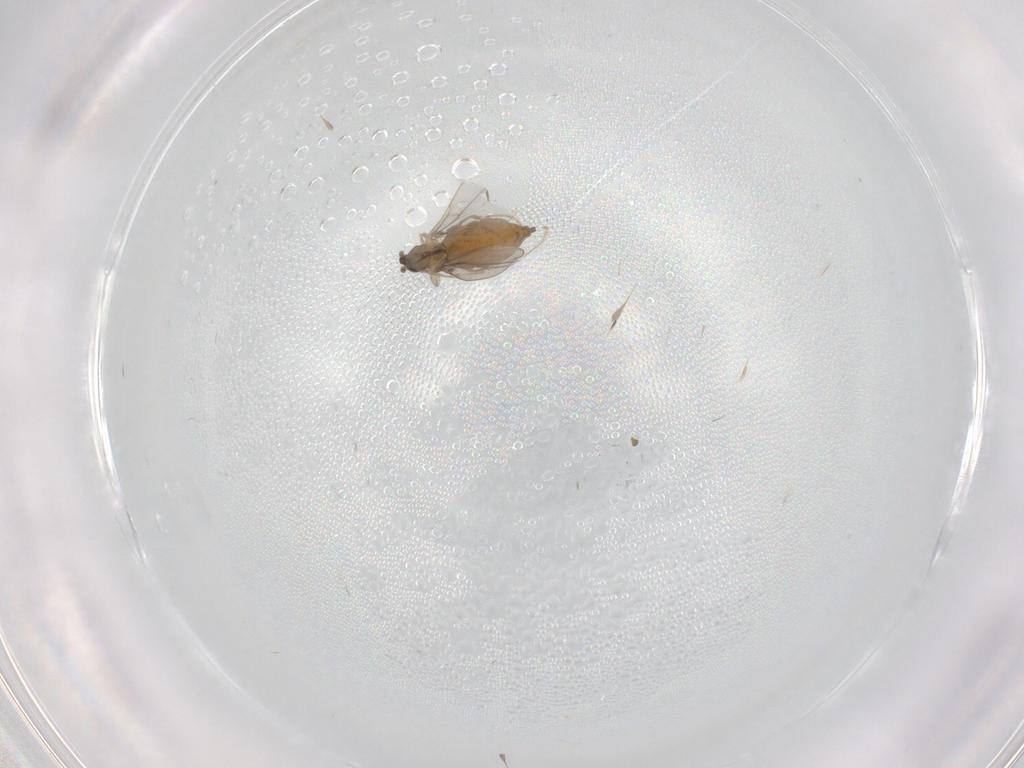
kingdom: Animalia
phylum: Arthropoda
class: Insecta
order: Diptera
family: Cecidomyiidae
